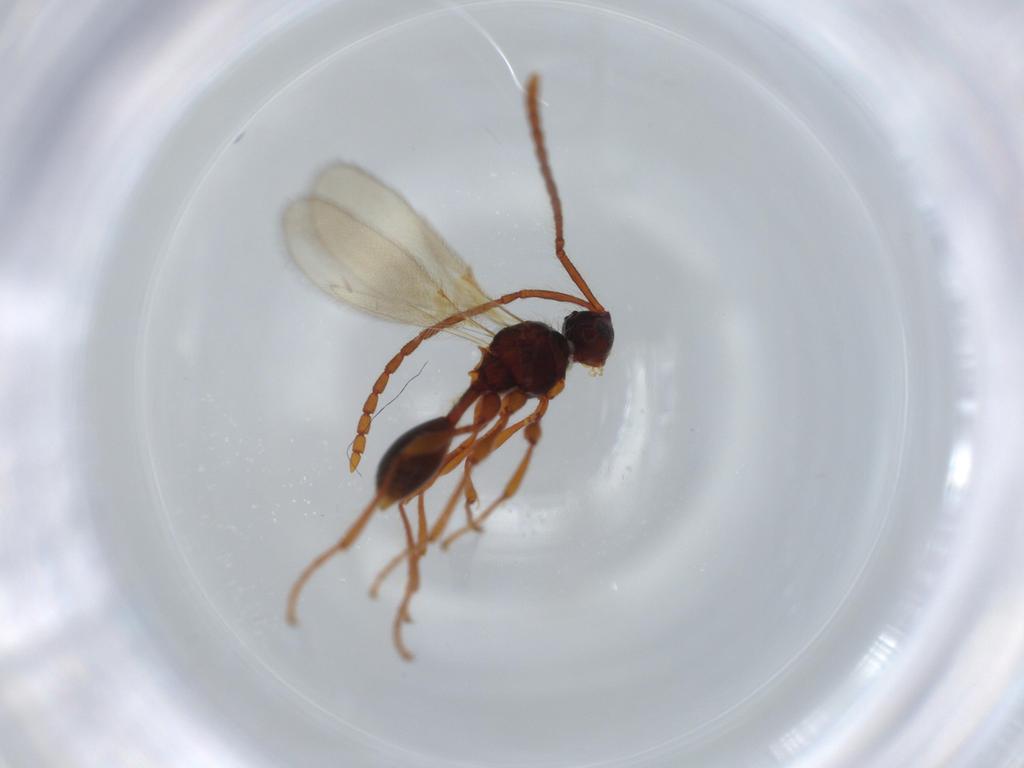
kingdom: Animalia
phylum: Arthropoda
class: Insecta
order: Hymenoptera
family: Diapriidae
